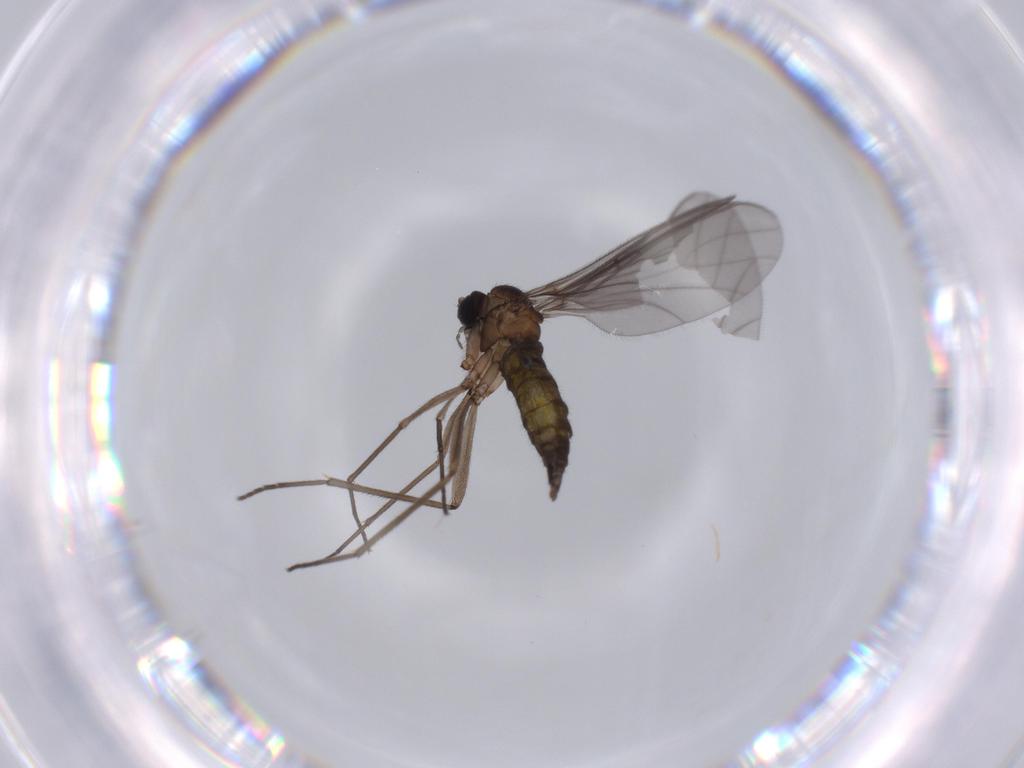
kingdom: Animalia
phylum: Arthropoda
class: Insecta
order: Diptera
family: Sciaridae
